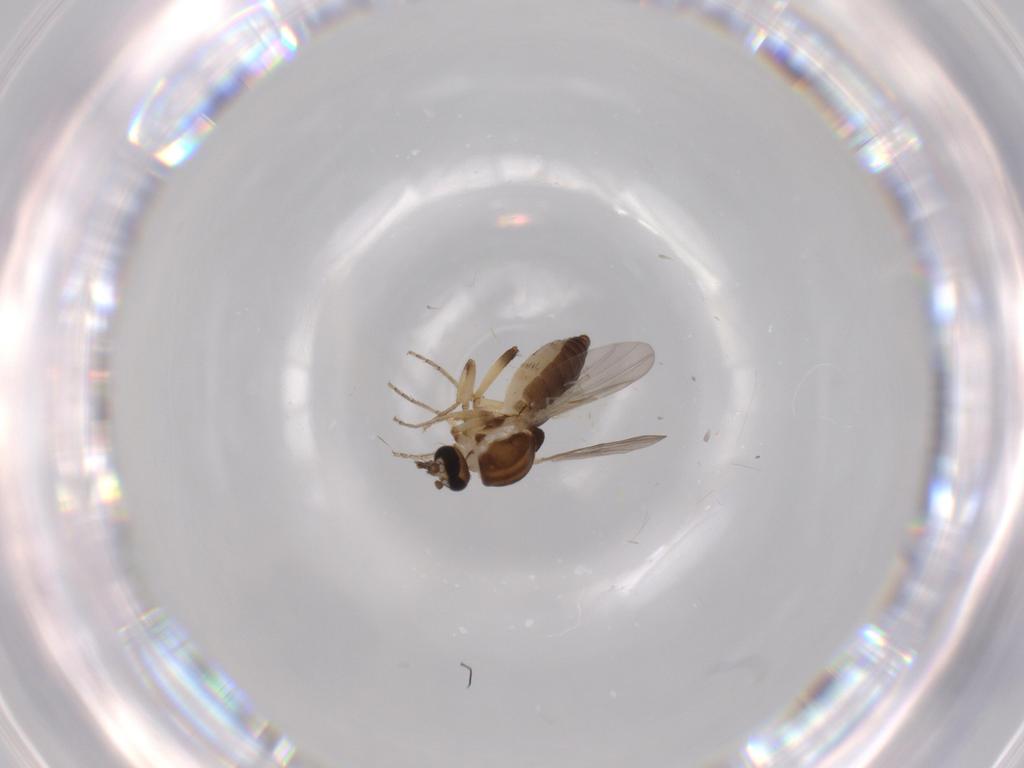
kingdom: Animalia
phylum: Arthropoda
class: Insecta
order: Diptera
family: Ceratopogonidae
